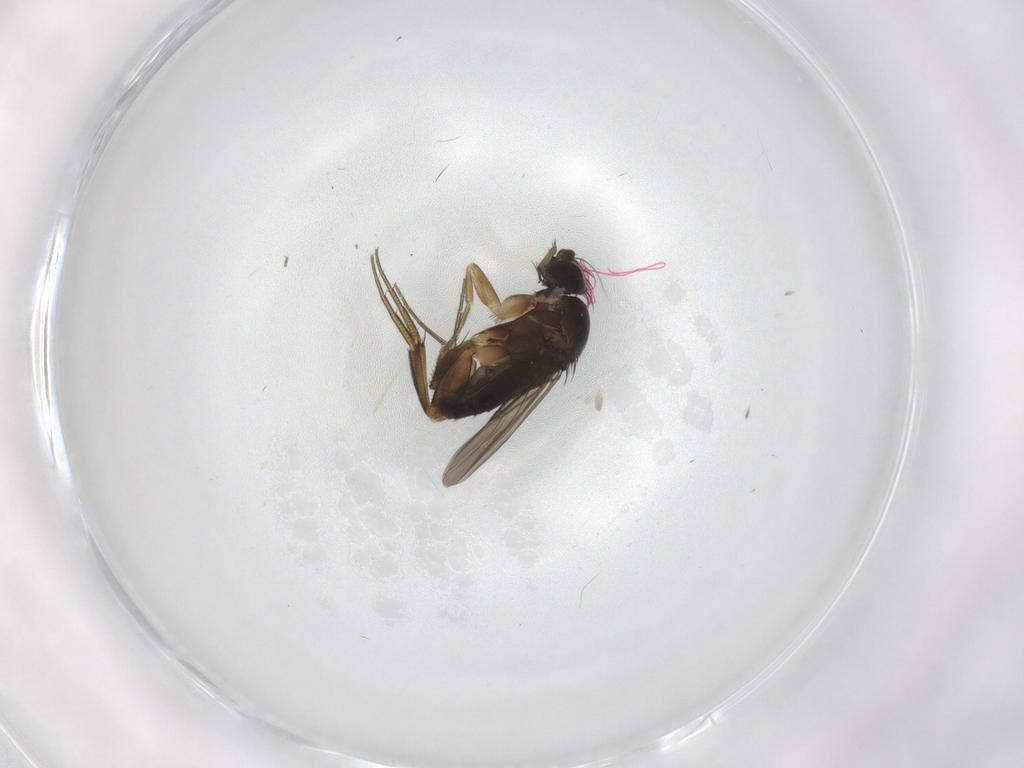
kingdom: Animalia
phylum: Arthropoda
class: Insecta
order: Diptera
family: Phoridae
